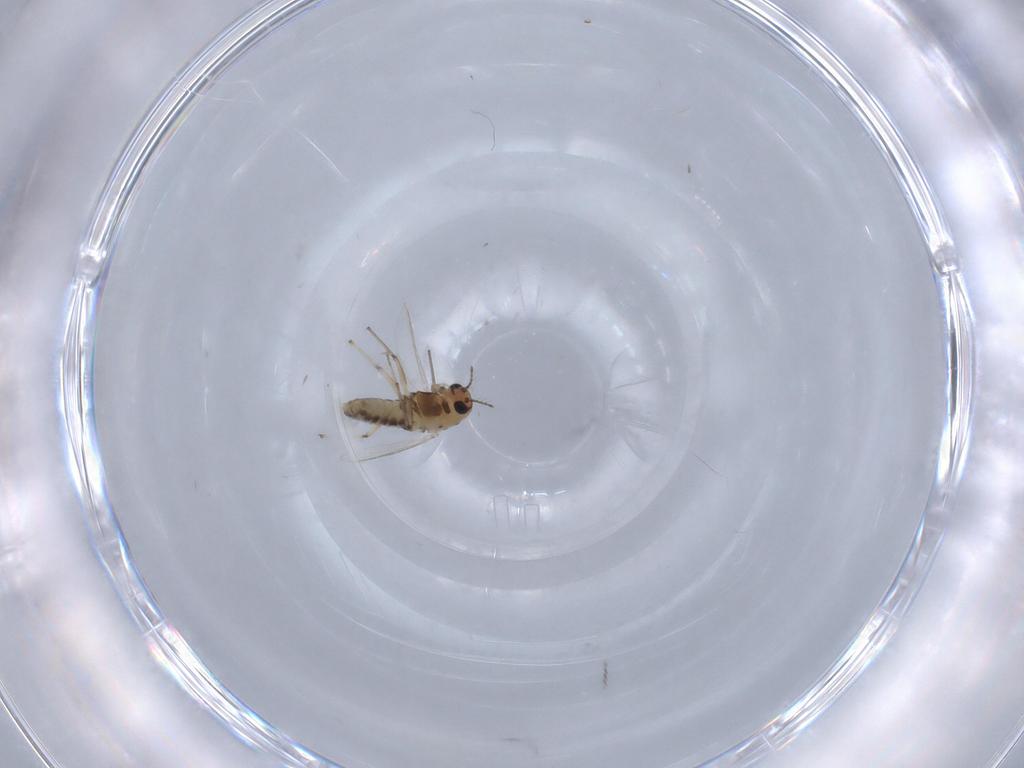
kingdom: Animalia
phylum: Arthropoda
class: Insecta
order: Diptera
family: Chironomidae
